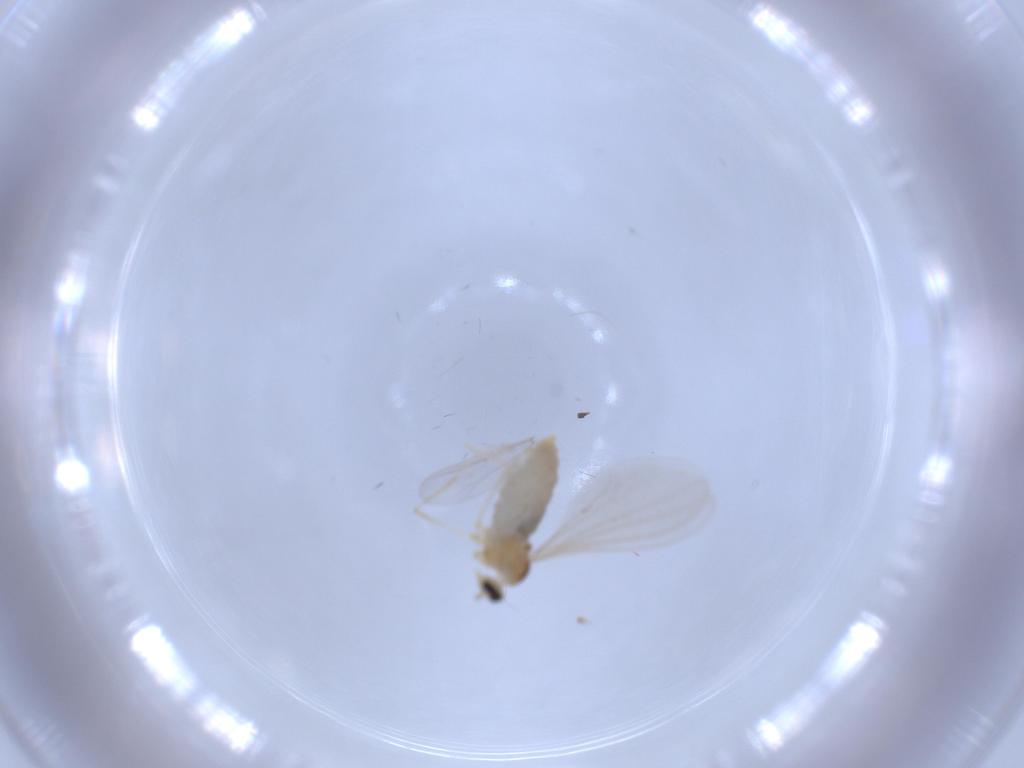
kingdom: Animalia
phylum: Arthropoda
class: Insecta
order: Diptera
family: Cecidomyiidae
